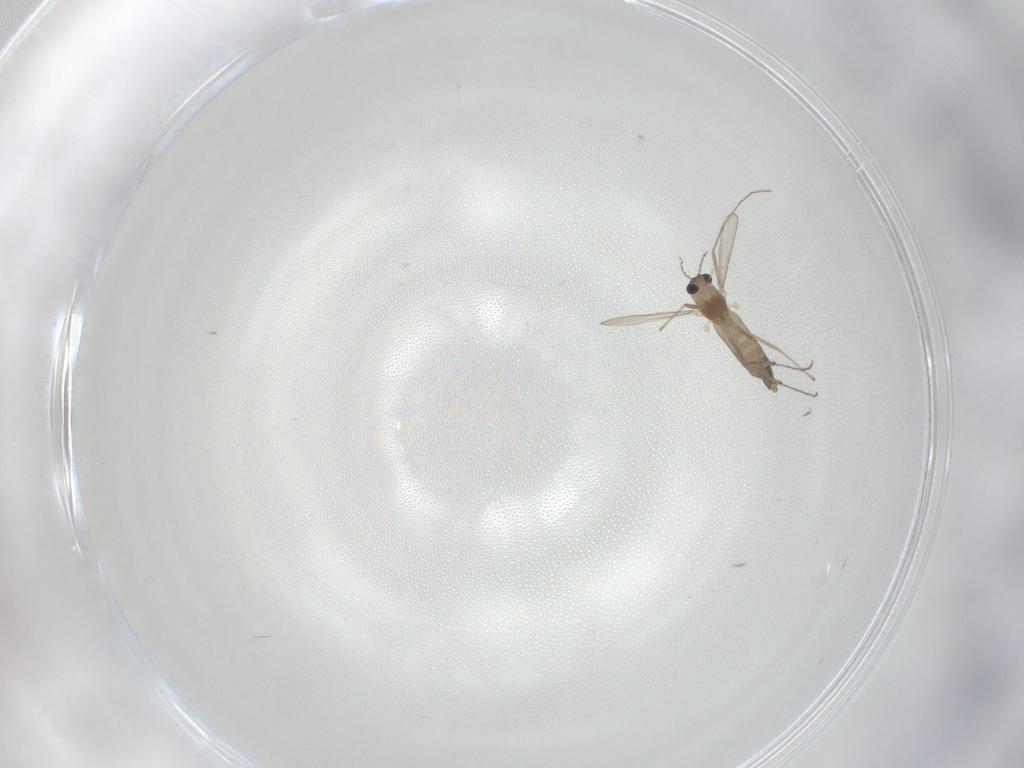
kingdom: Animalia
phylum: Arthropoda
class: Insecta
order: Diptera
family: Chironomidae
